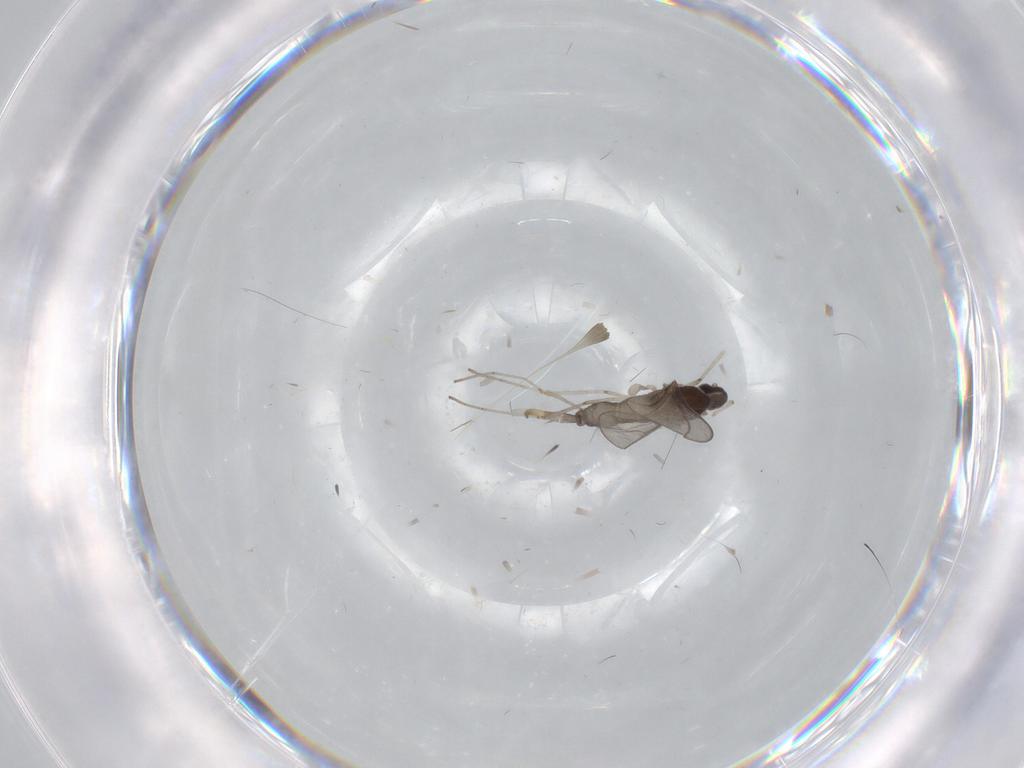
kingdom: Animalia
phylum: Arthropoda
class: Insecta
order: Diptera
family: Cecidomyiidae
